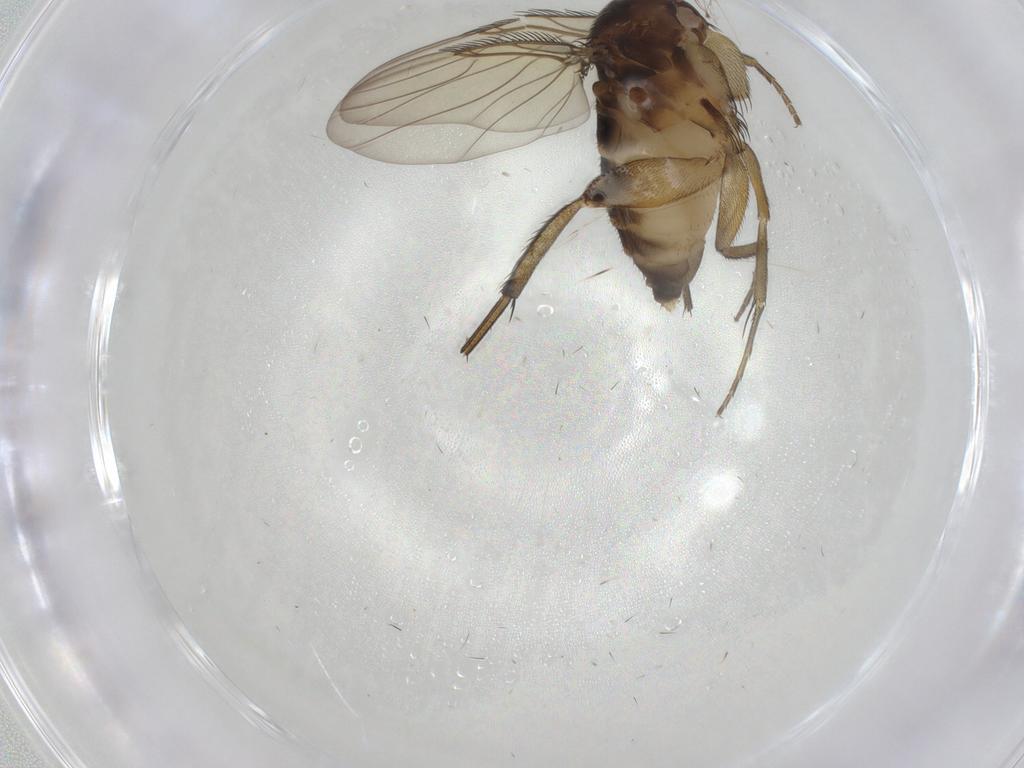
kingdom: Animalia
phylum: Arthropoda
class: Insecta
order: Diptera
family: Phoridae
